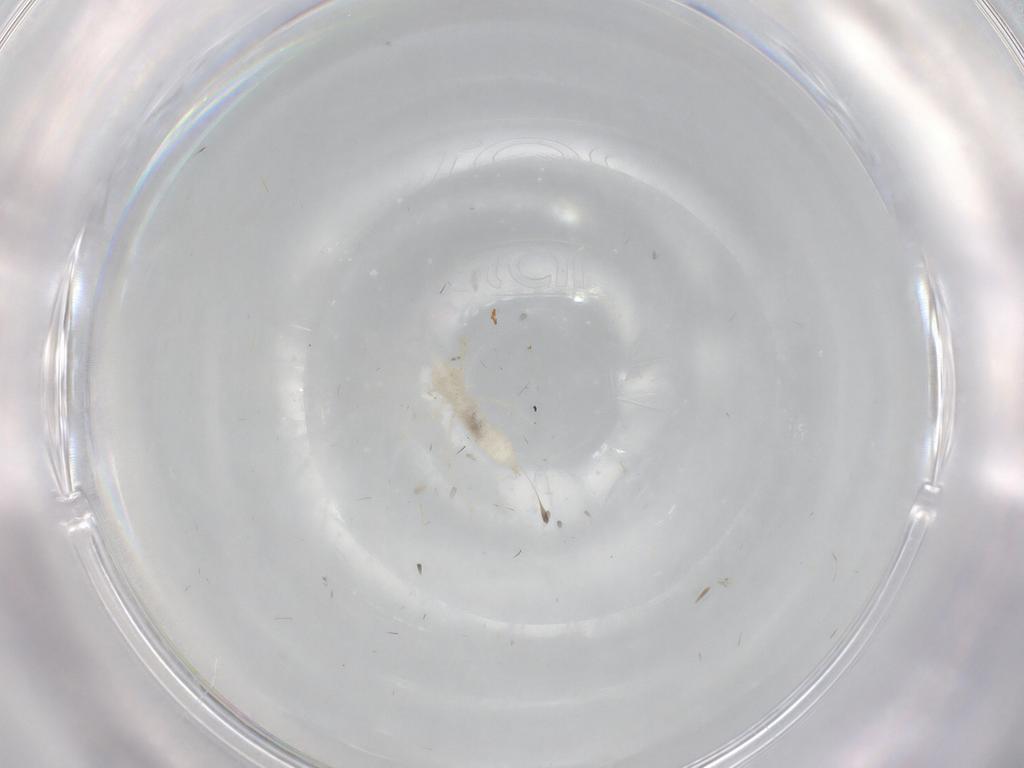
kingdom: Animalia
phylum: Arthropoda
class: Insecta
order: Diptera
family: Cecidomyiidae
